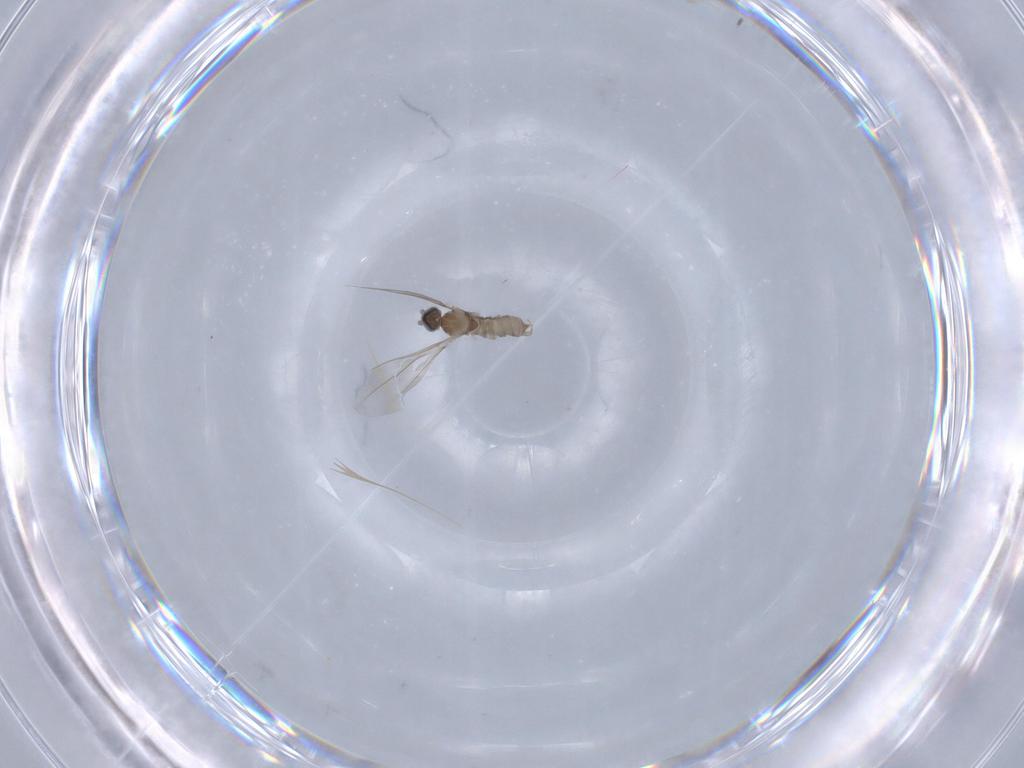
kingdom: Animalia
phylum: Arthropoda
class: Insecta
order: Diptera
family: Cecidomyiidae
